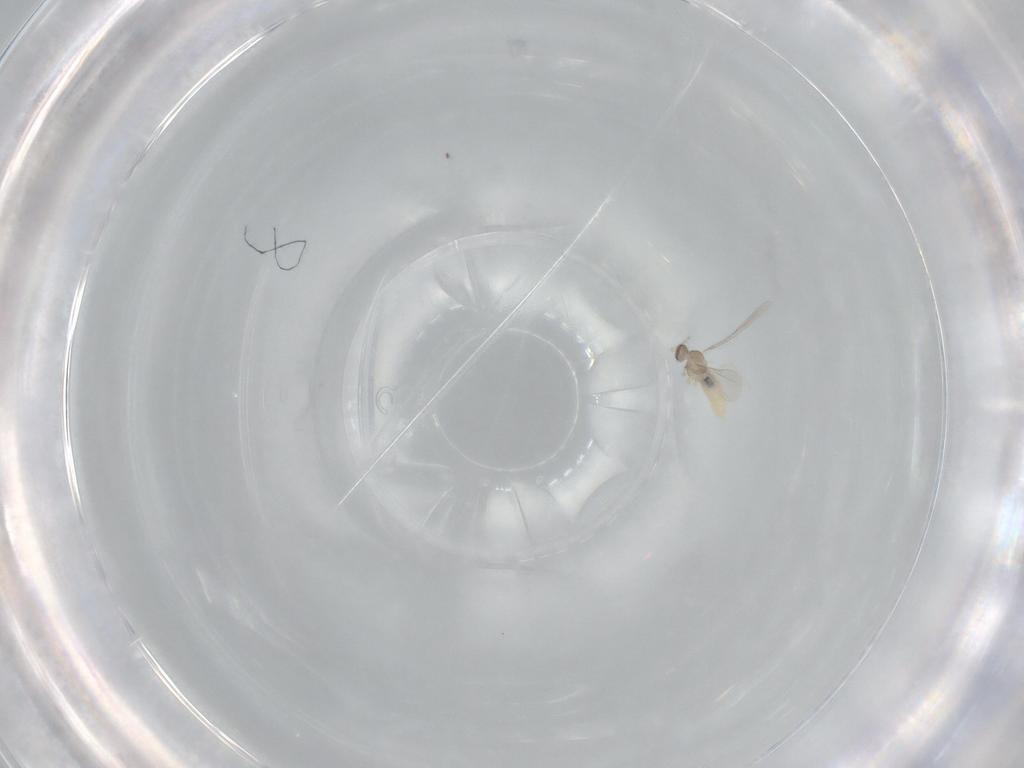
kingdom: Animalia
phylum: Arthropoda
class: Insecta
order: Diptera
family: Cecidomyiidae
